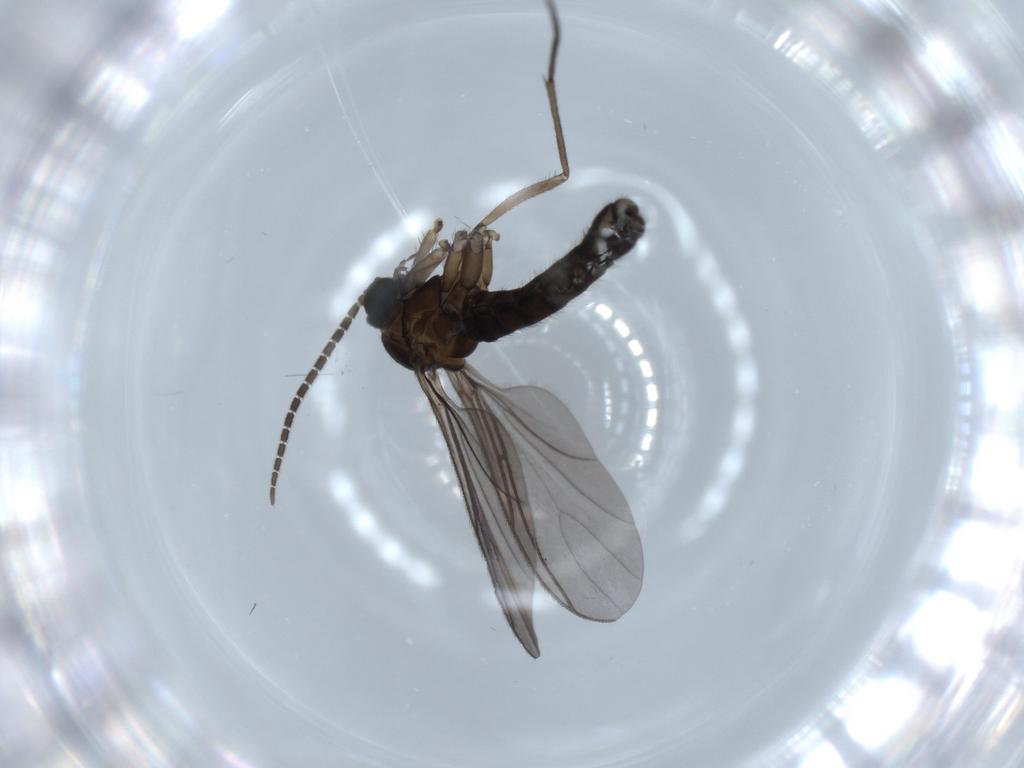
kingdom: Animalia
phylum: Arthropoda
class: Insecta
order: Diptera
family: Sciaridae
